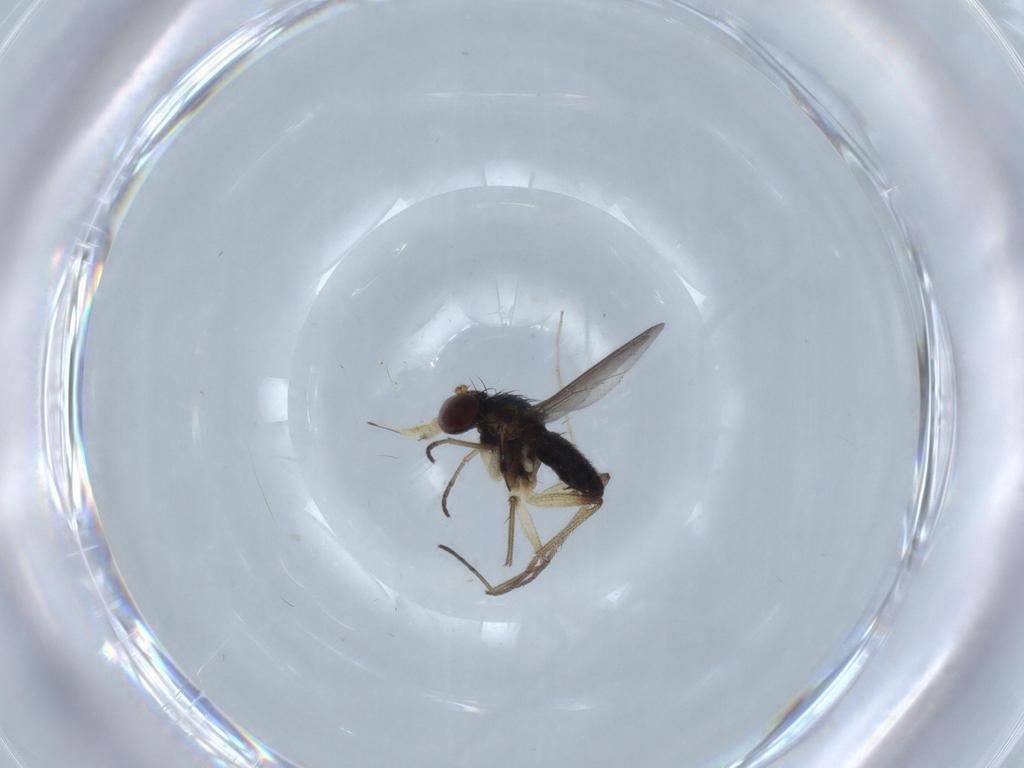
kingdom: Animalia
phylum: Arthropoda
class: Insecta
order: Diptera
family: Dolichopodidae
